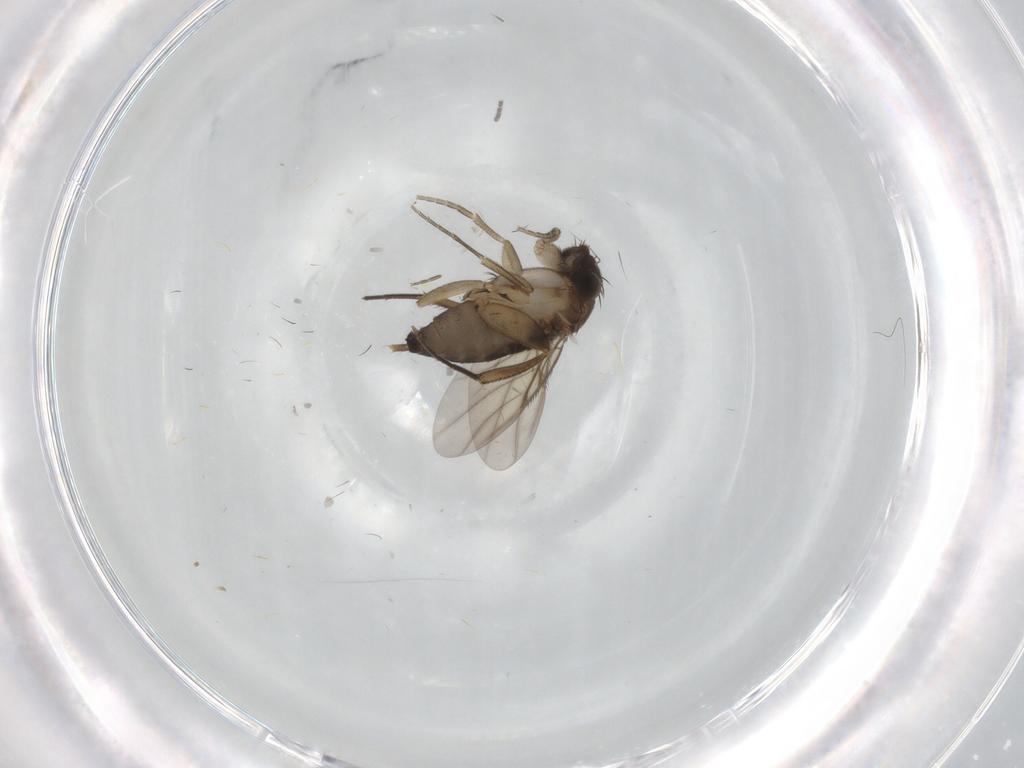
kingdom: Animalia
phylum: Arthropoda
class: Insecta
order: Diptera
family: Phoridae
